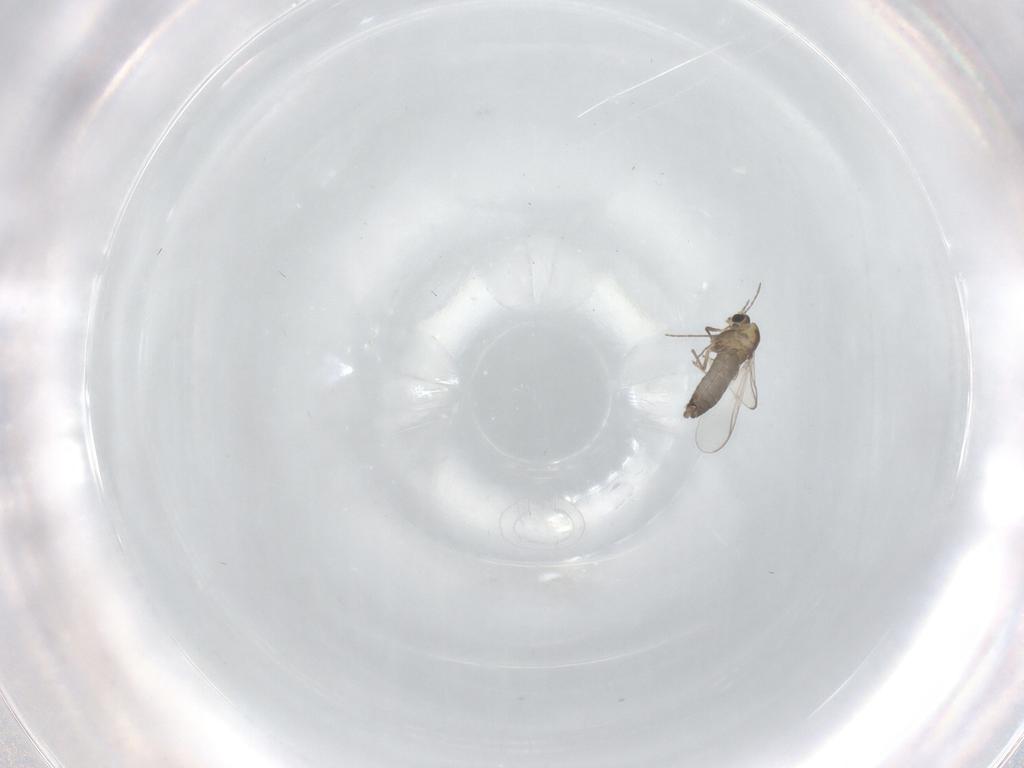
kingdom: Animalia
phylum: Arthropoda
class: Insecta
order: Diptera
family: Chironomidae
